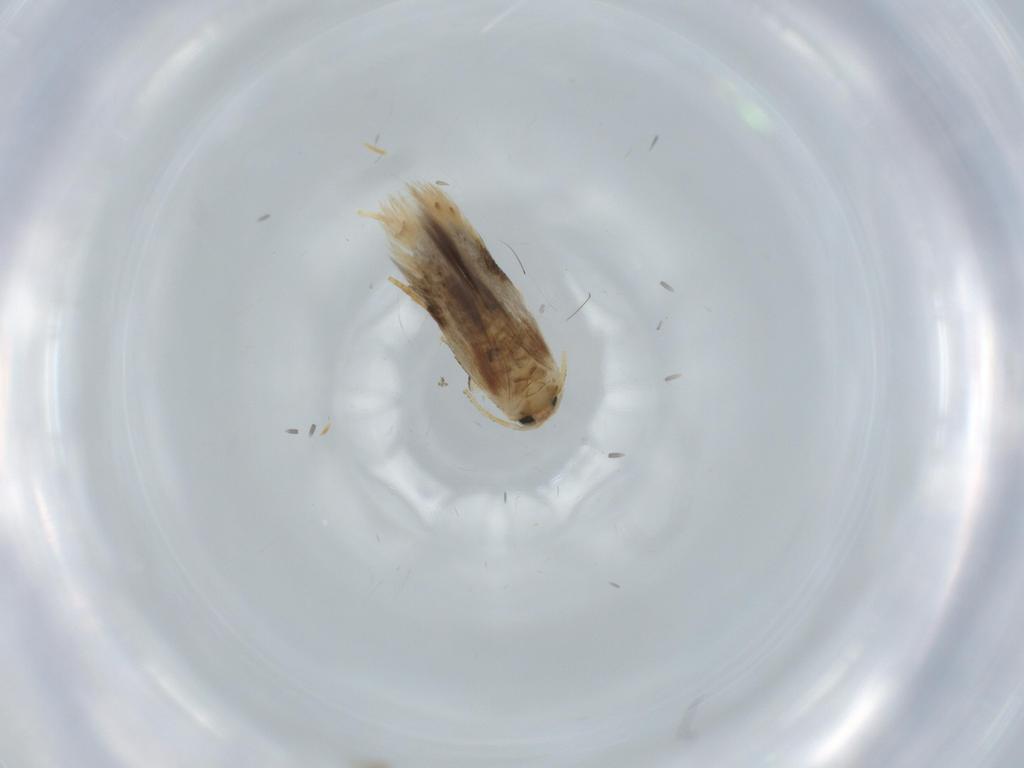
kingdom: Animalia
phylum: Arthropoda
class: Insecta
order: Lepidoptera
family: Nepticulidae
